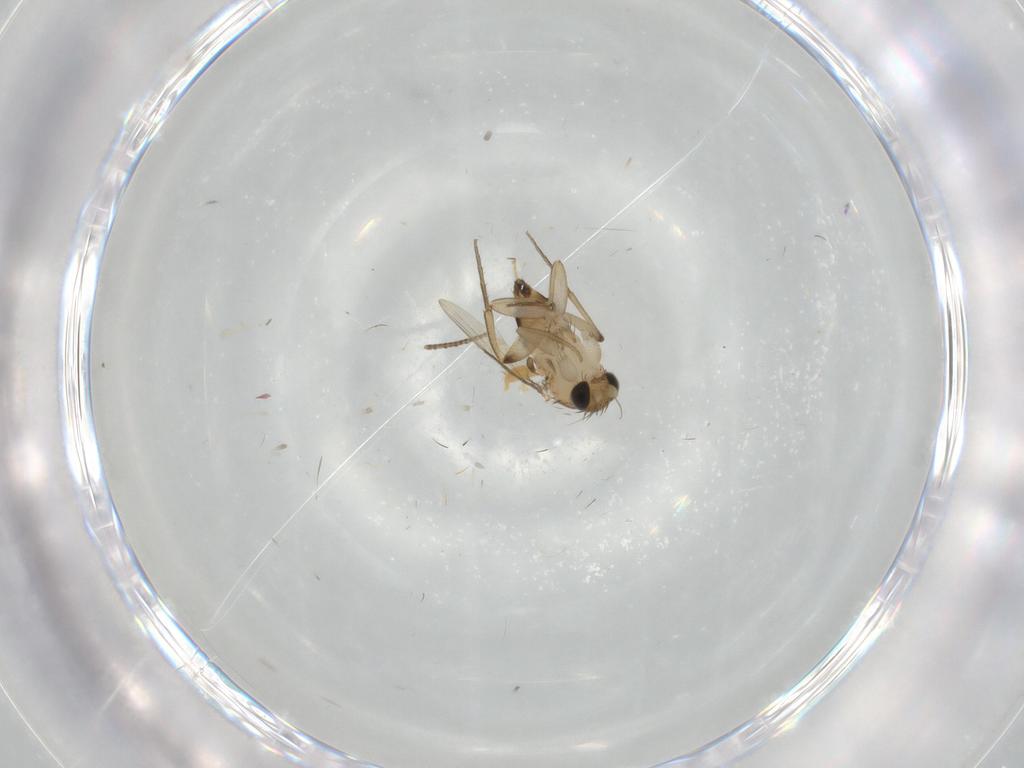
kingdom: Animalia
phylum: Arthropoda
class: Insecta
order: Diptera
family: Phoridae
